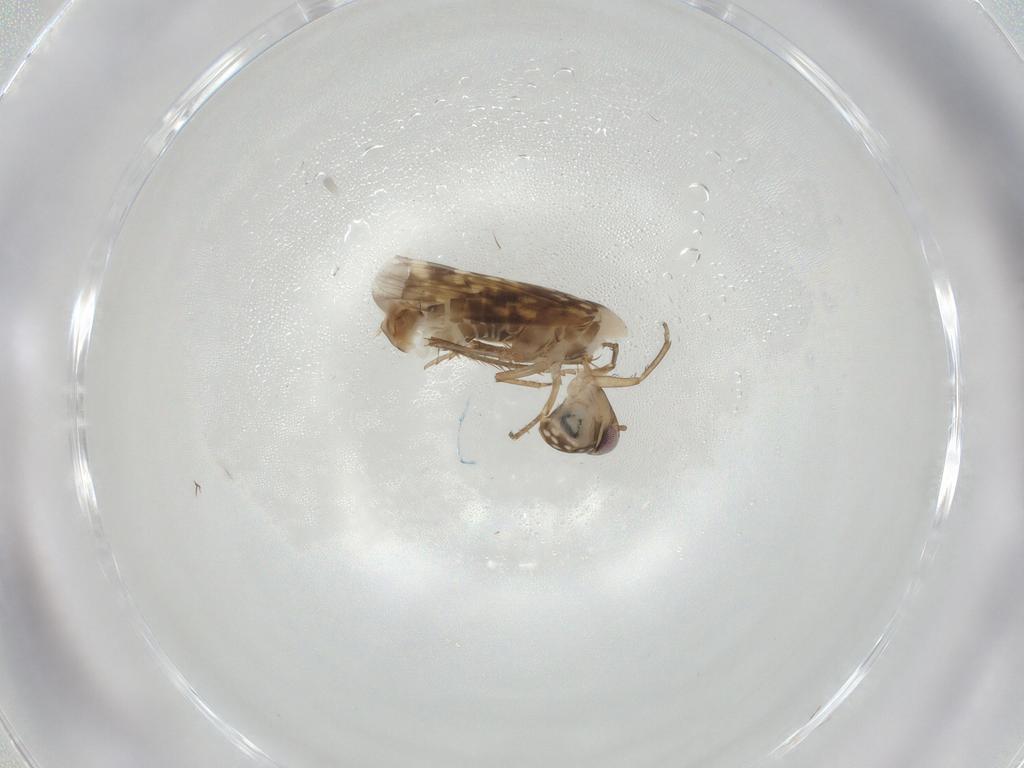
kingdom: Animalia
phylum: Arthropoda
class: Insecta
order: Hemiptera
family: Cicadellidae
